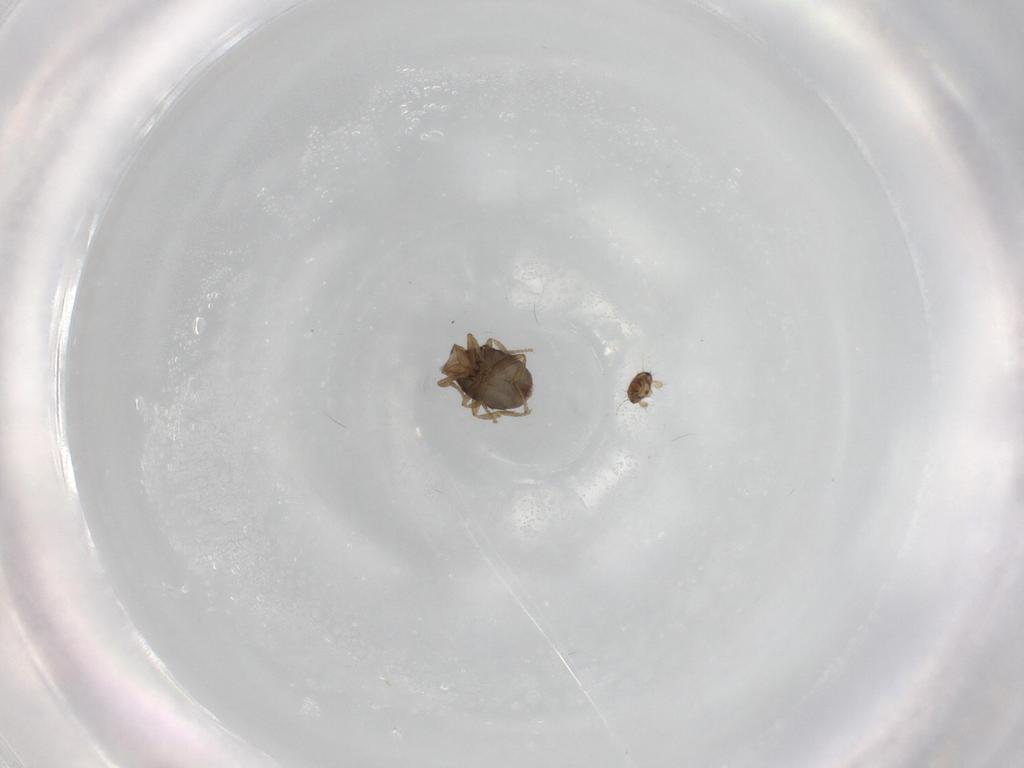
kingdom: Animalia
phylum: Arthropoda
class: Insecta
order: Diptera
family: Phoridae
